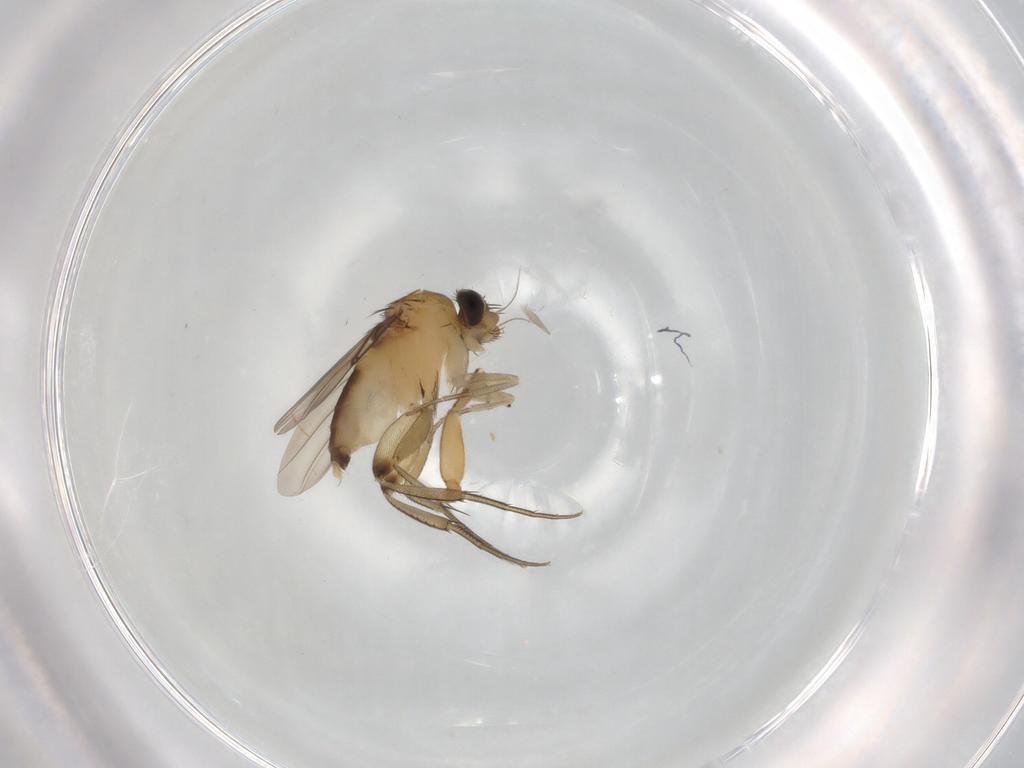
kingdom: Animalia
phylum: Arthropoda
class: Insecta
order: Diptera
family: Phoridae
